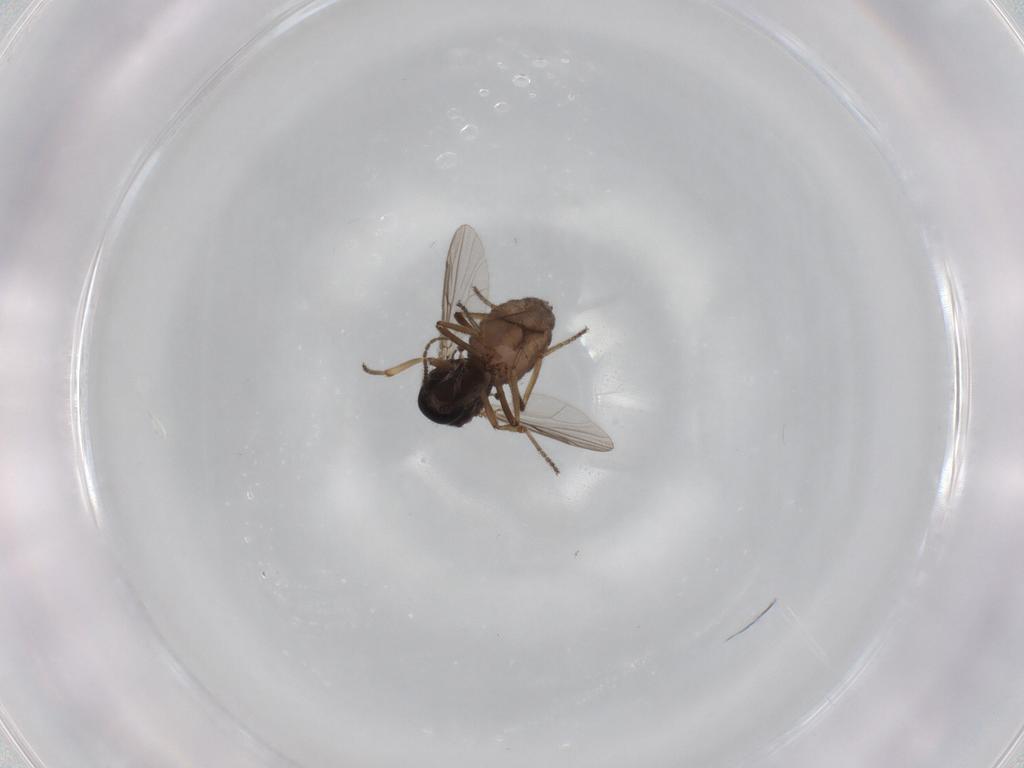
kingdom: Animalia
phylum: Arthropoda
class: Insecta
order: Diptera
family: Ceratopogonidae
